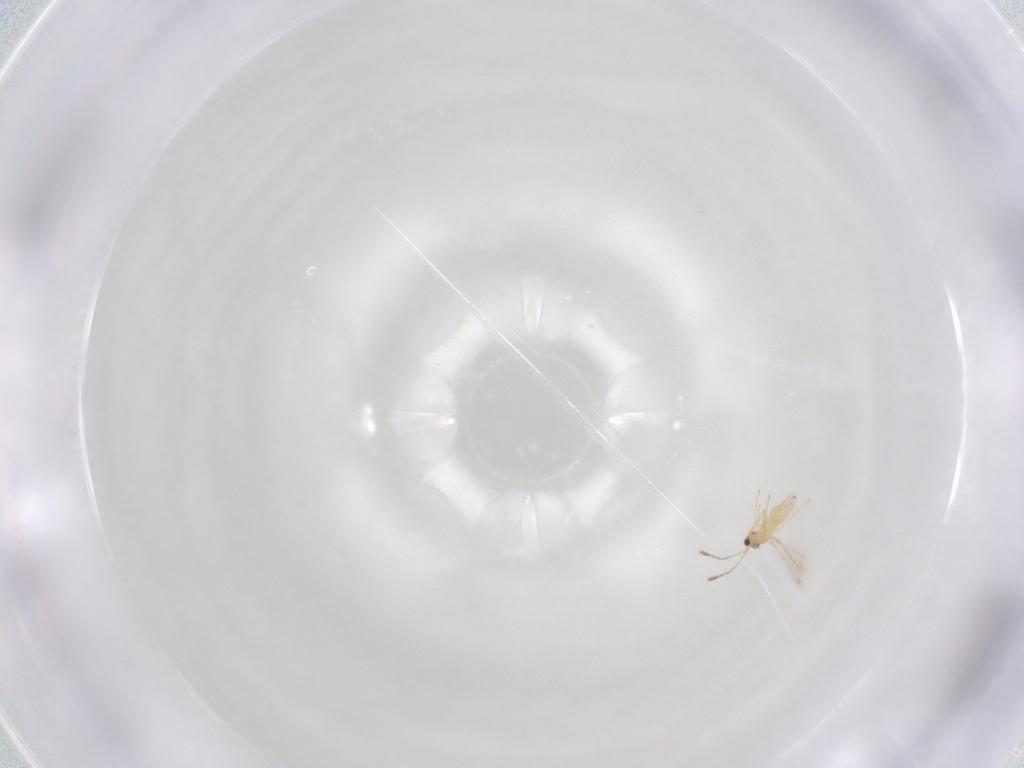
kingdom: Animalia
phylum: Arthropoda
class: Insecta
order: Hymenoptera
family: Mymaridae
